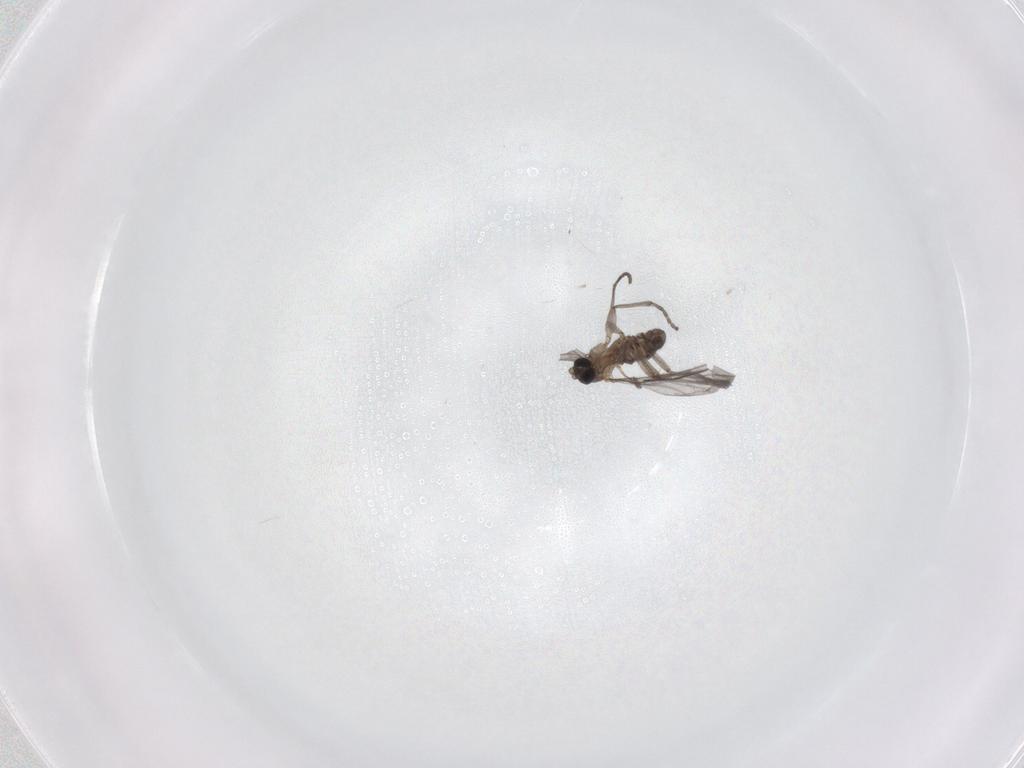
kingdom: Animalia
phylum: Arthropoda
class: Insecta
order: Diptera
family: Sciaridae
